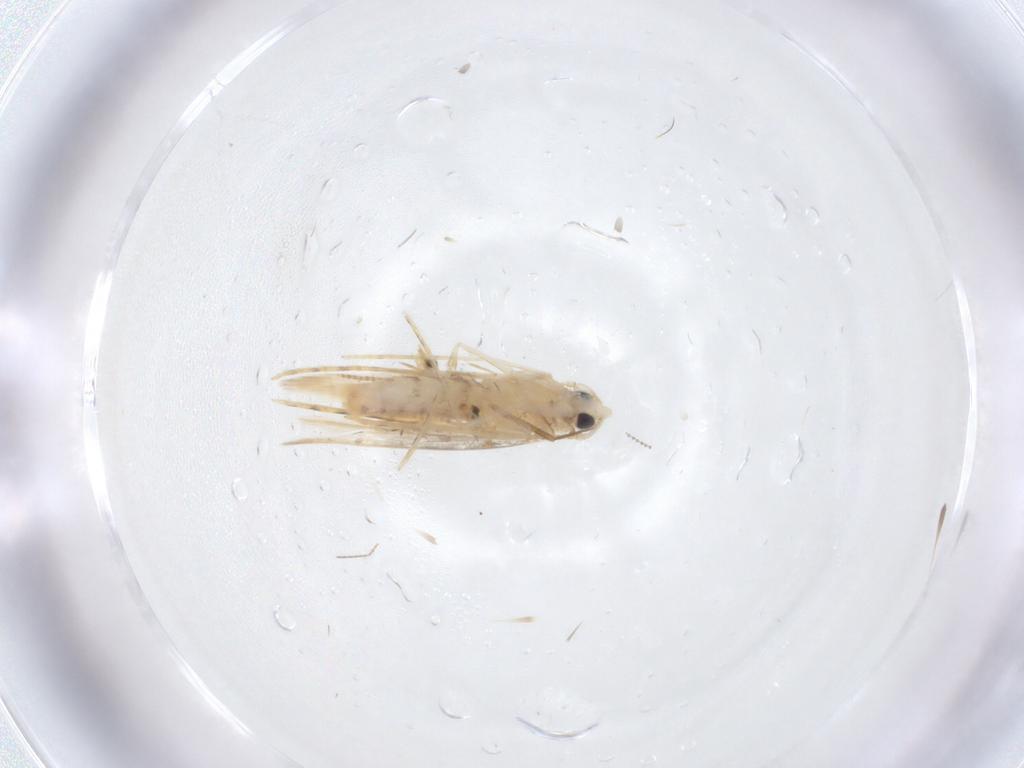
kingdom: Animalia
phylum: Arthropoda
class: Insecta
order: Lepidoptera
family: Tineidae
